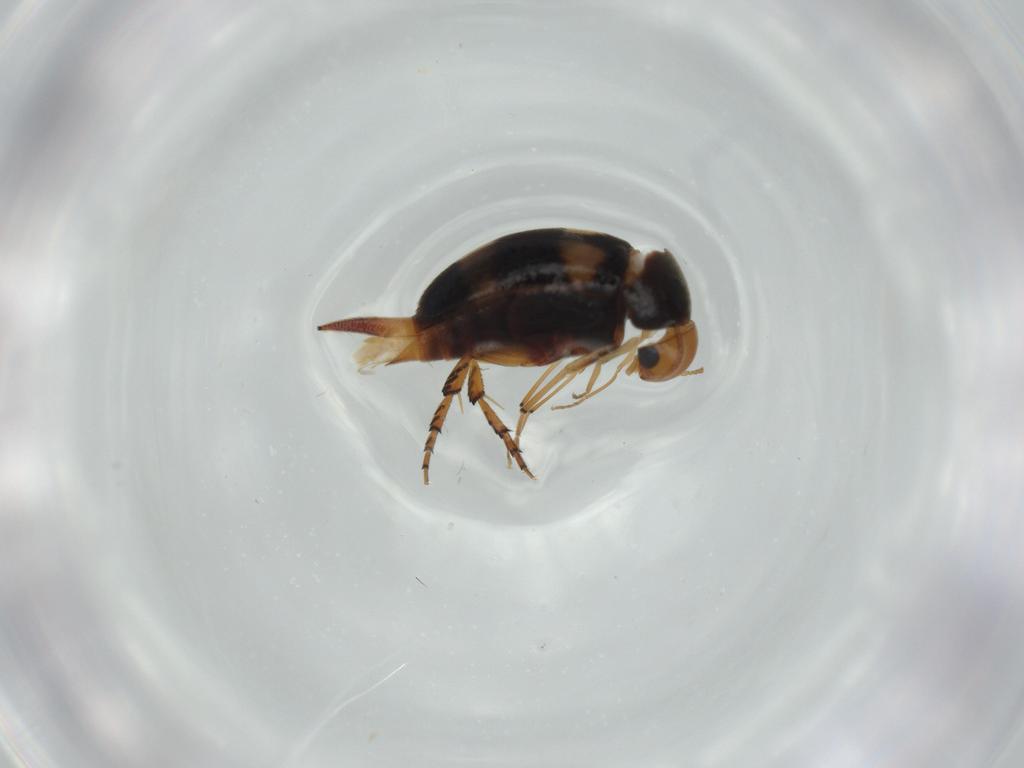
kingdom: Animalia
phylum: Arthropoda
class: Insecta
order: Coleoptera
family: Mordellidae
